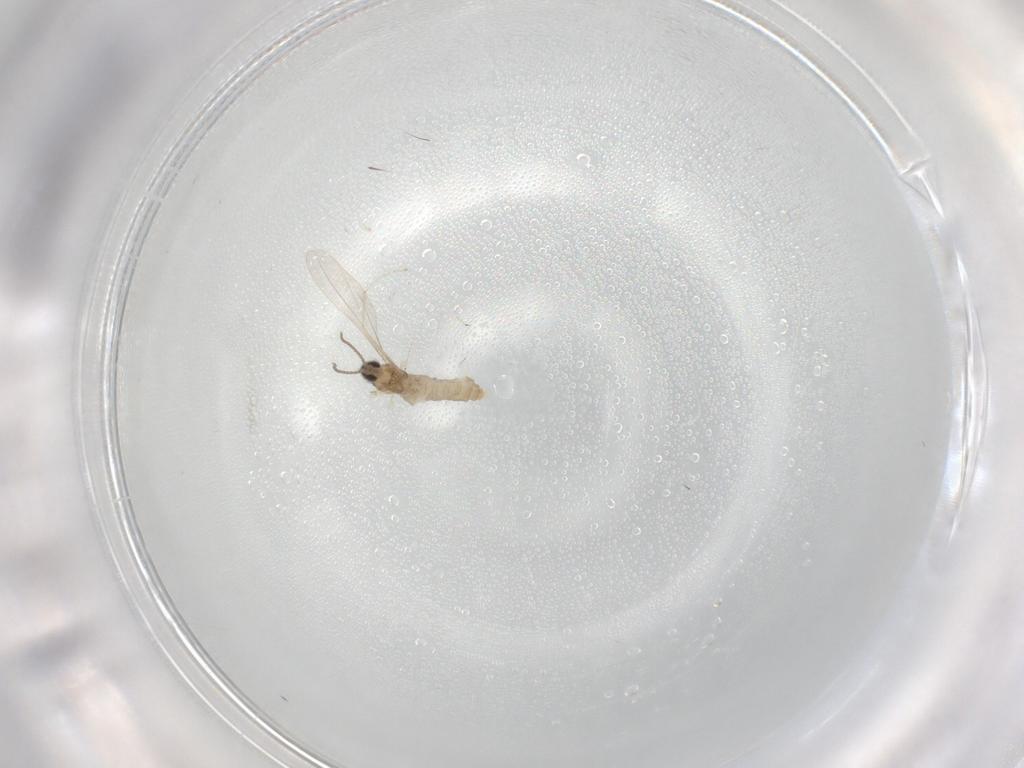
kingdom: Animalia
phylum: Arthropoda
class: Insecta
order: Diptera
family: Cecidomyiidae
